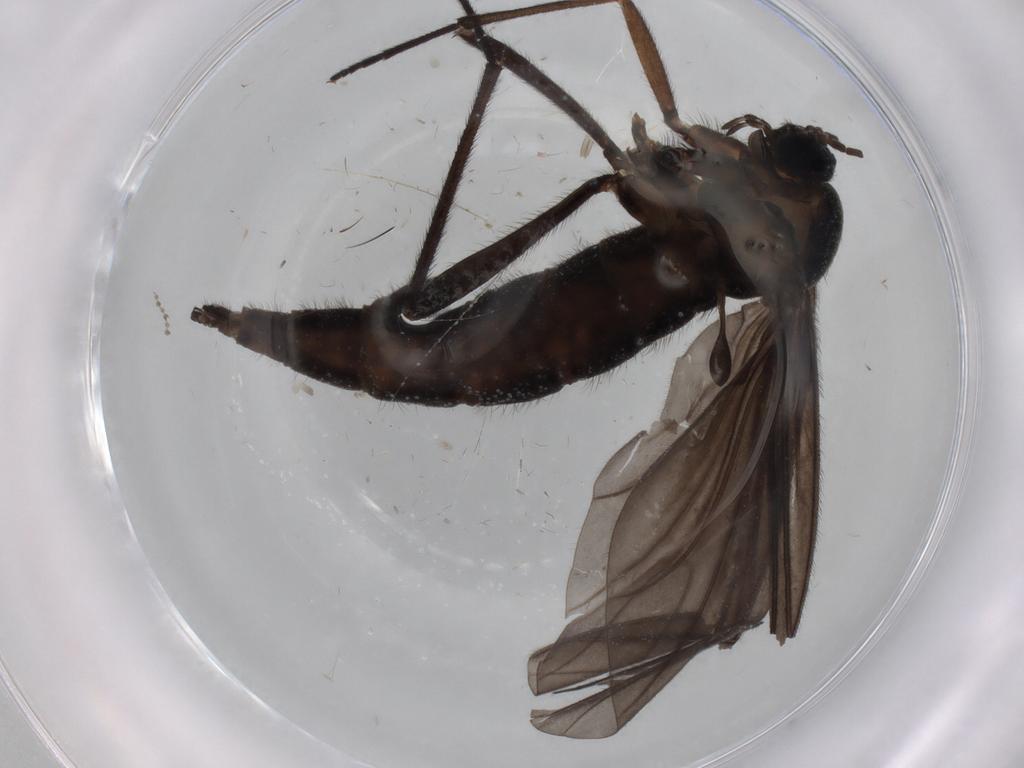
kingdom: Animalia
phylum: Arthropoda
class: Insecta
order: Diptera
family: Sciaridae
